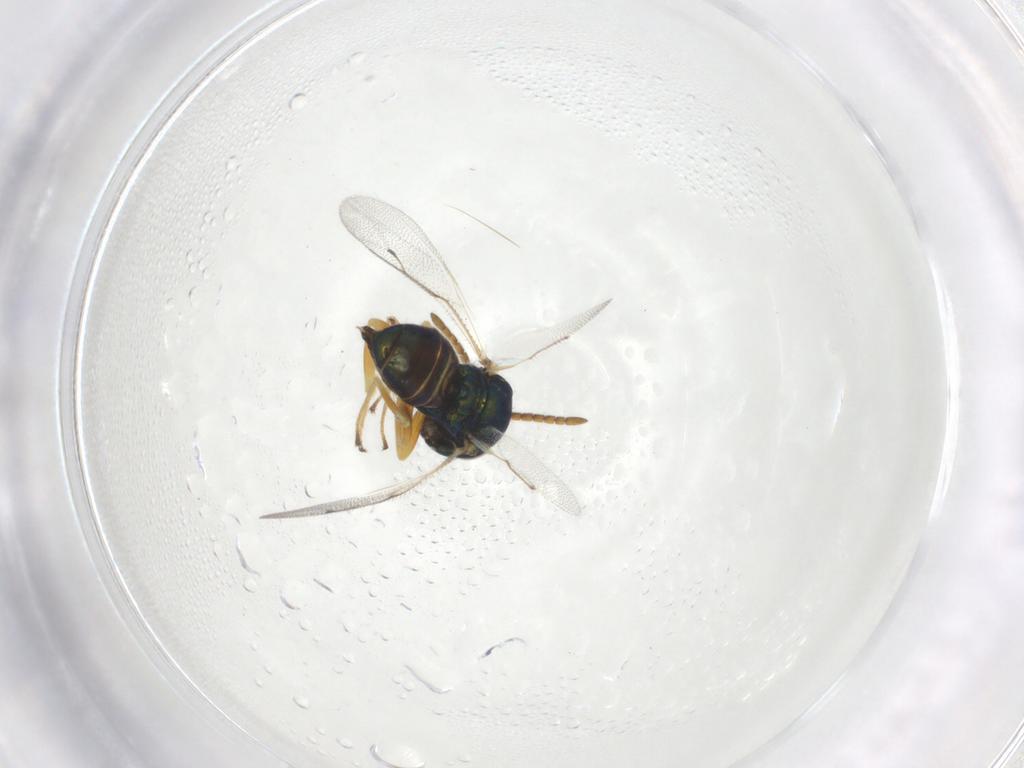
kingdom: Animalia
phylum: Arthropoda
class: Insecta
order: Hymenoptera
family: Pteromalidae
